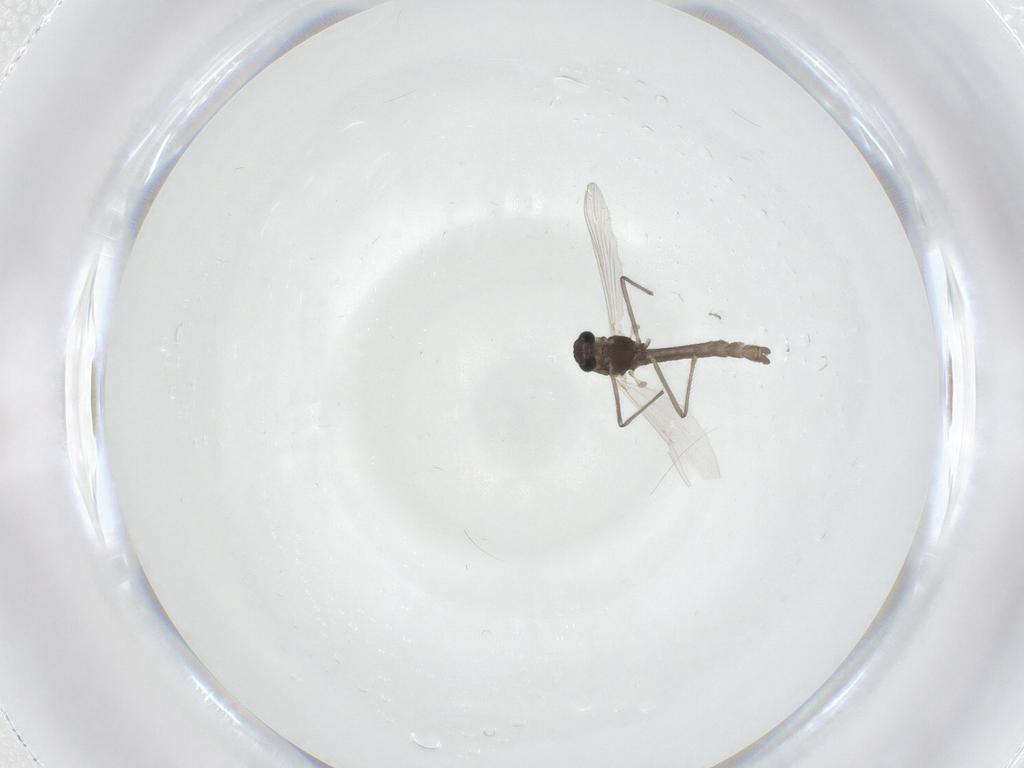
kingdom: Animalia
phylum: Arthropoda
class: Insecta
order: Diptera
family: Chironomidae
